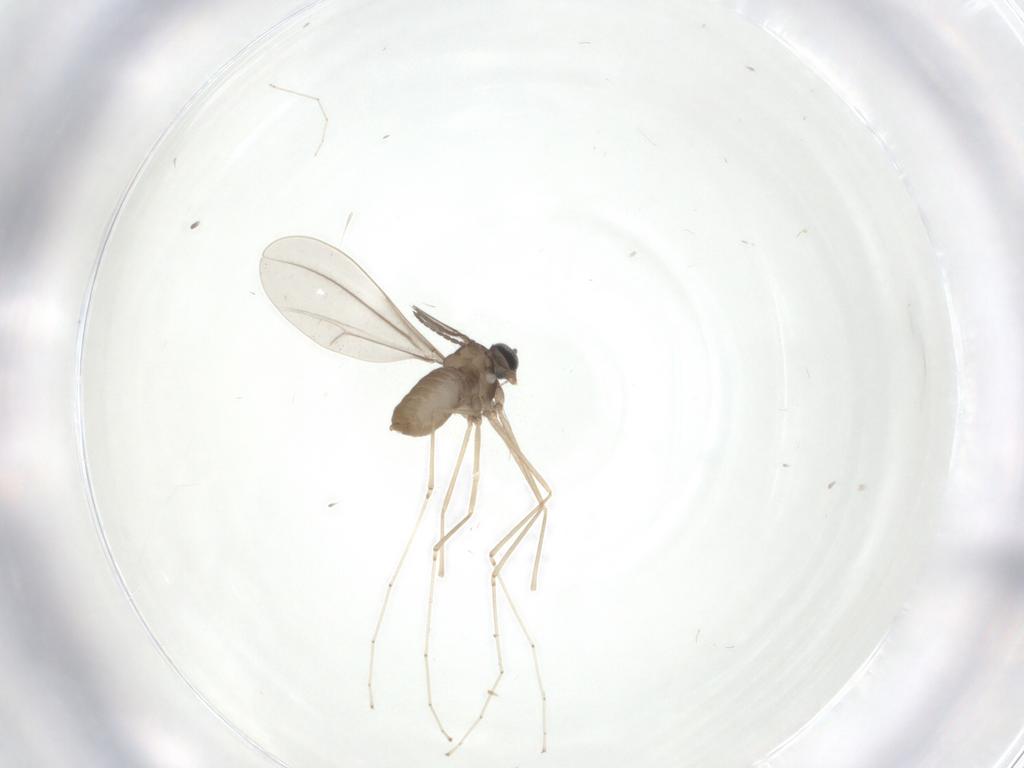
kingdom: Animalia
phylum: Arthropoda
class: Insecta
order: Diptera
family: Cecidomyiidae
